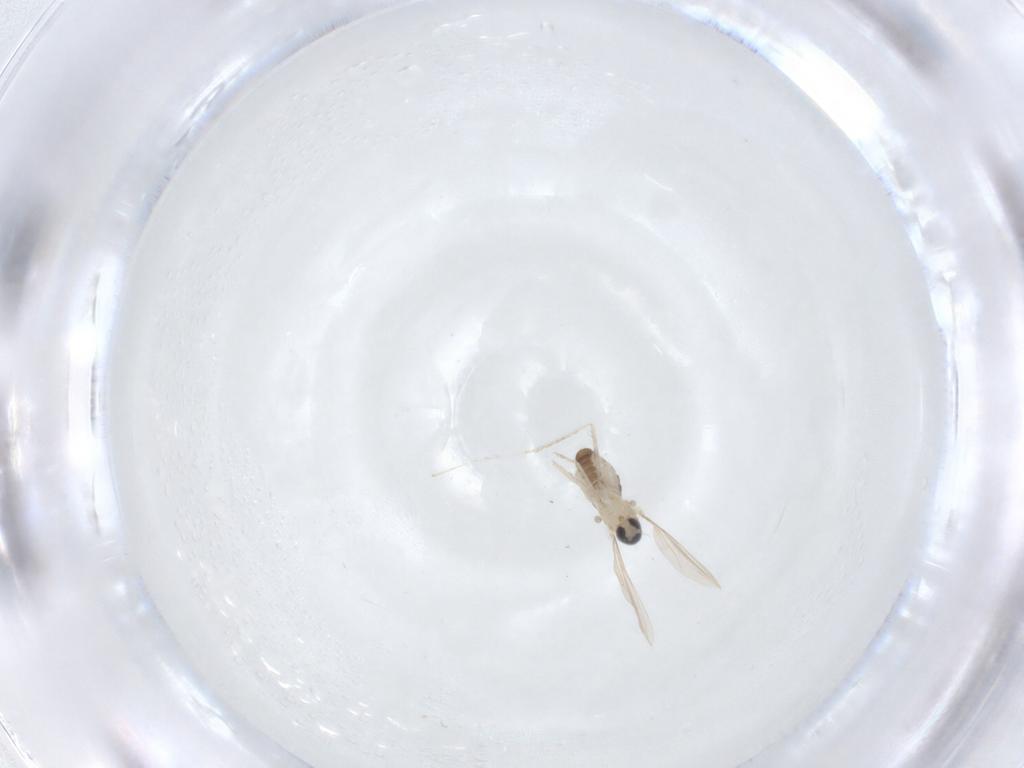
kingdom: Animalia
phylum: Arthropoda
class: Insecta
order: Diptera
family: Cecidomyiidae
